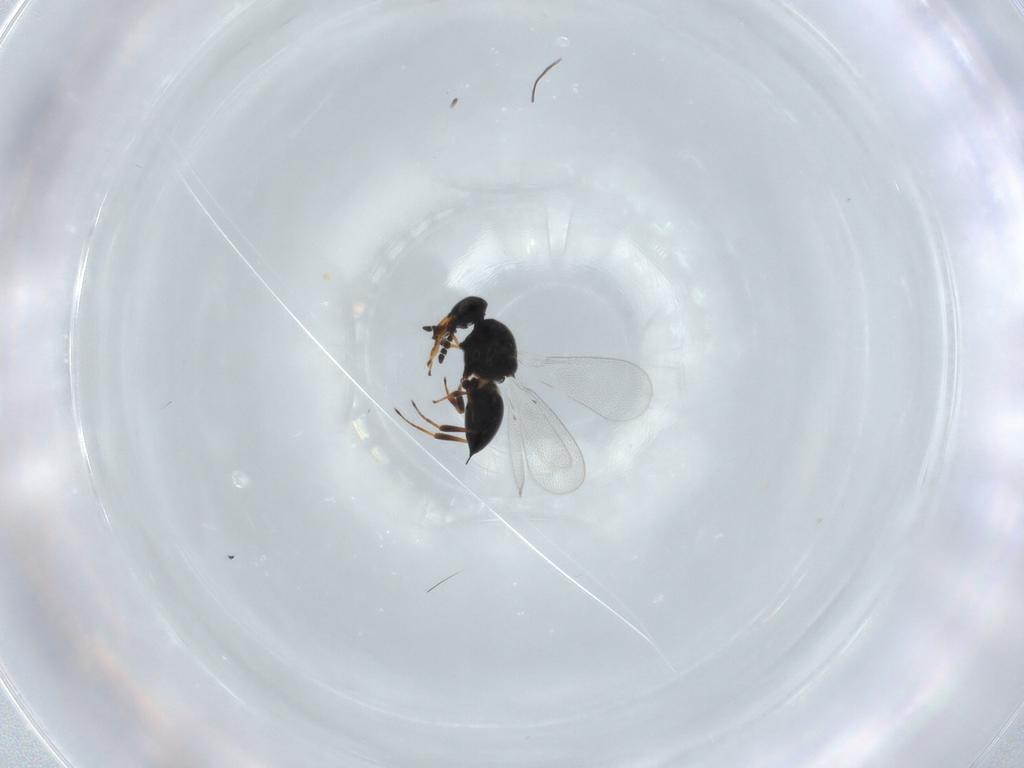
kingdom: Animalia
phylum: Arthropoda
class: Insecta
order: Hymenoptera
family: Platygastridae
